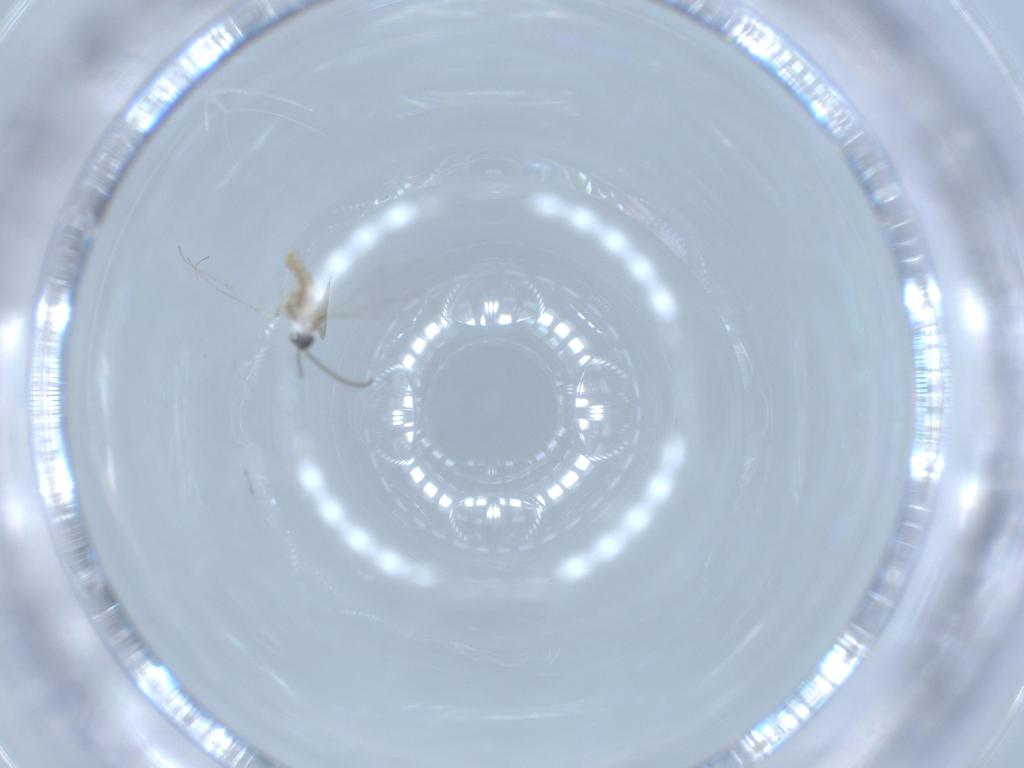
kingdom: Animalia
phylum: Arthropoda
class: Insecta
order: Diptera
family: Cecidomyiidae
